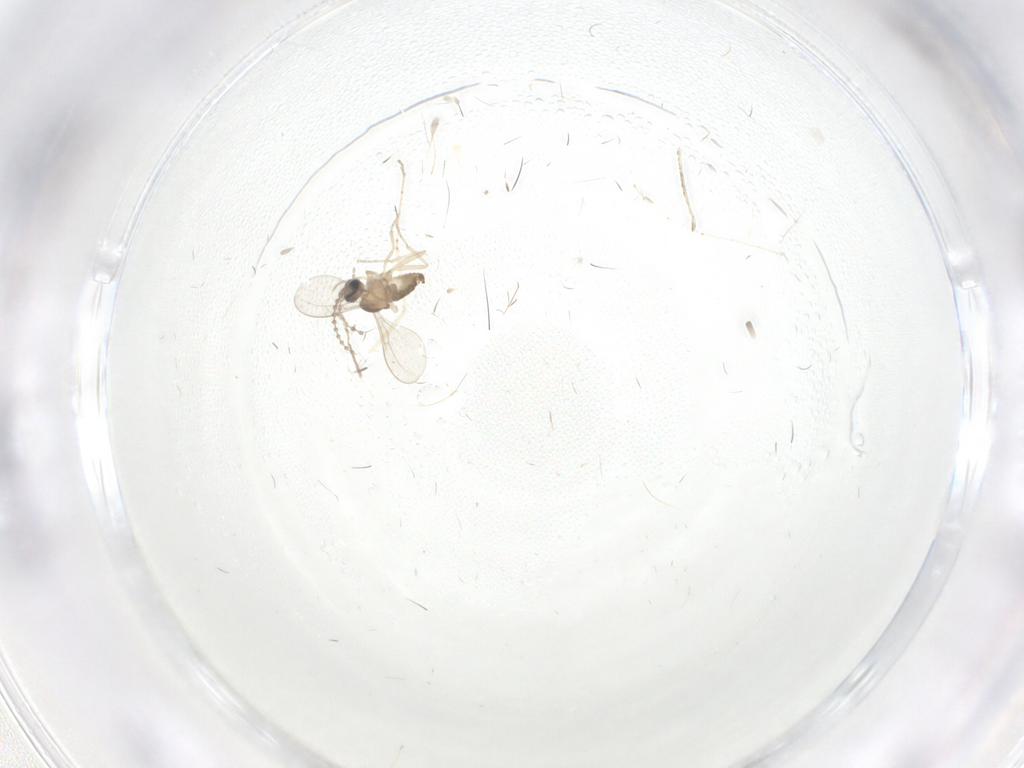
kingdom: Animalia
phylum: Arthropoda
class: Insecta
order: Diptera
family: Cecidomyiidae
